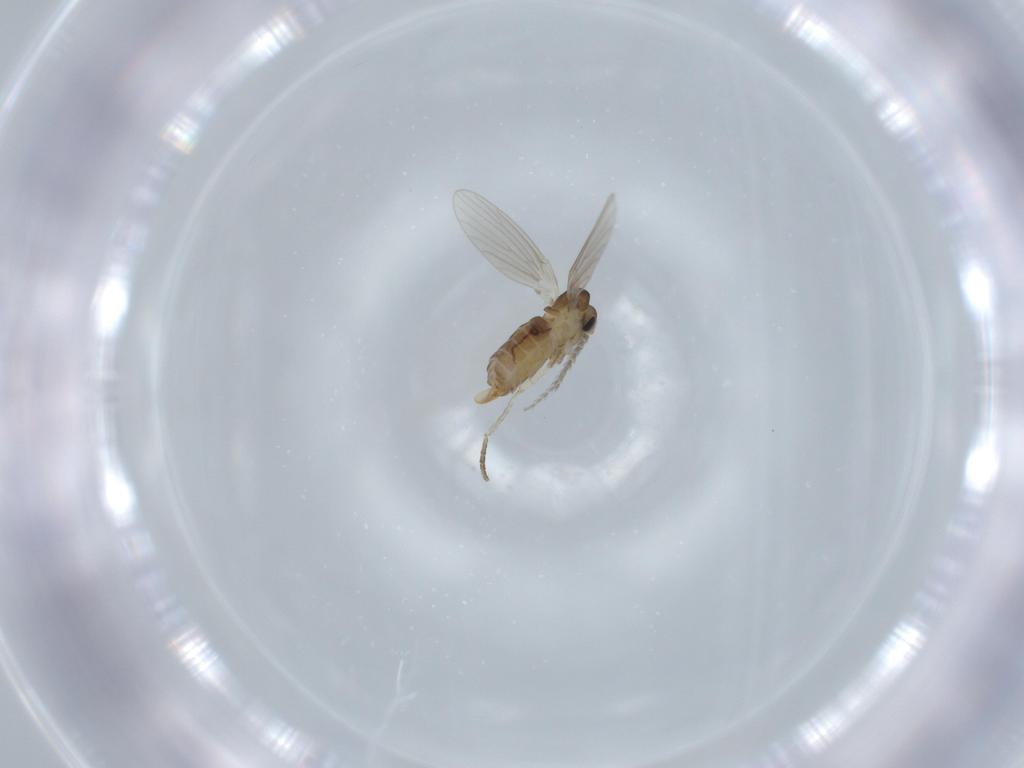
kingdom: Animalia
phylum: Arthropoda
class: Insecta
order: Diptera
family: Psychodidae
